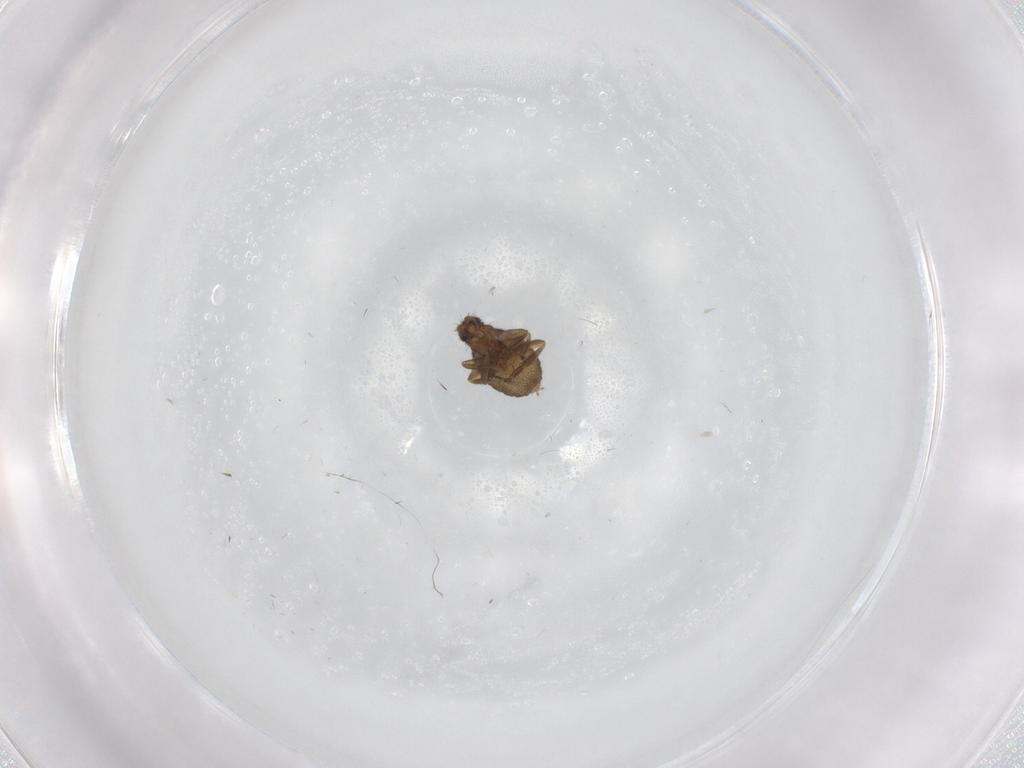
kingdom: Animalia
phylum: Arthropoda
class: Insecta
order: Diptera
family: Phoridae
